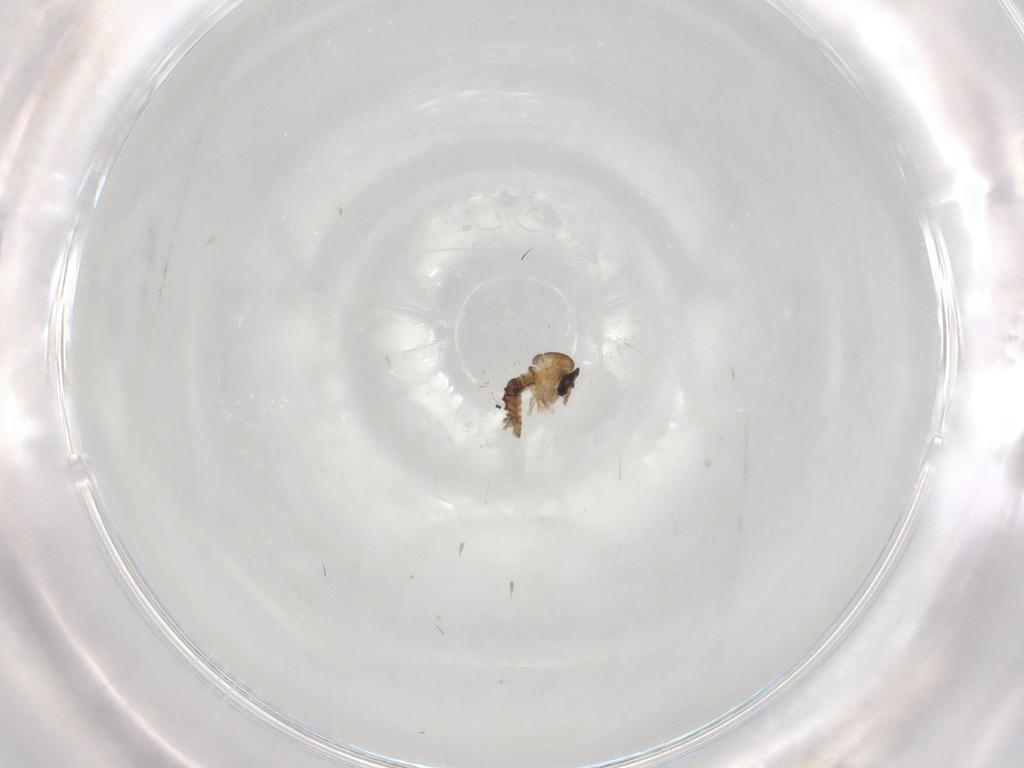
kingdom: Animalia
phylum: Arthropoda
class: Insecta
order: Diptera
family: Psychodidae
